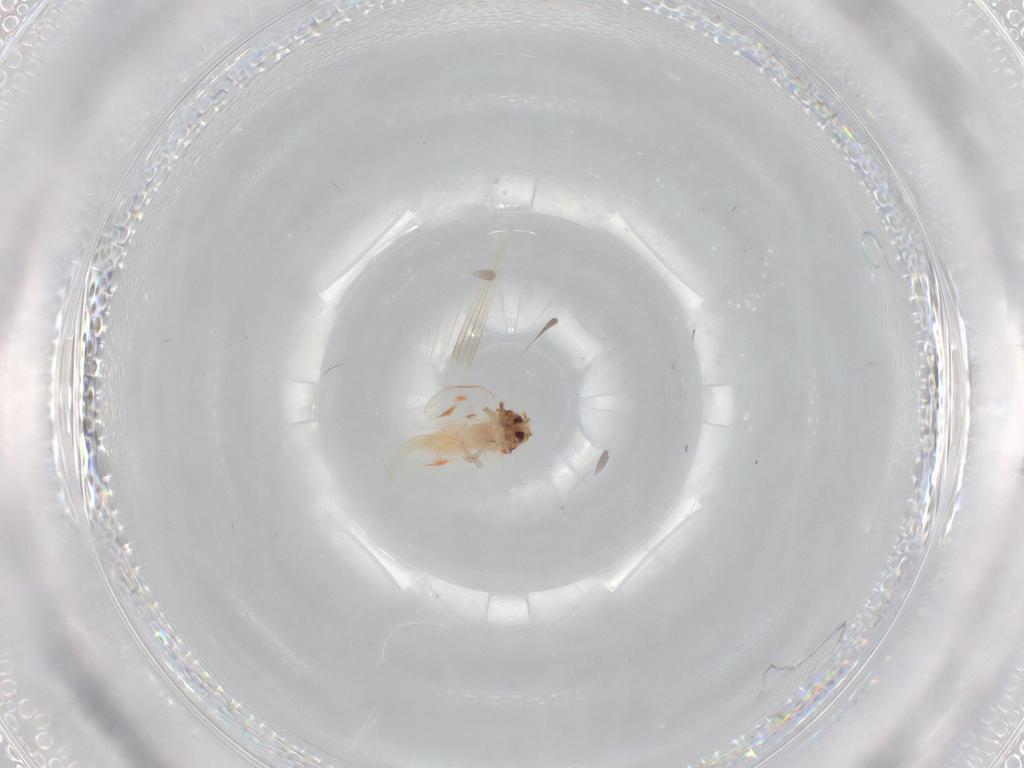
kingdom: Animalia
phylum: Arthropoda
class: Insecta
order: Hemiptera
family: Aleyrodidae
